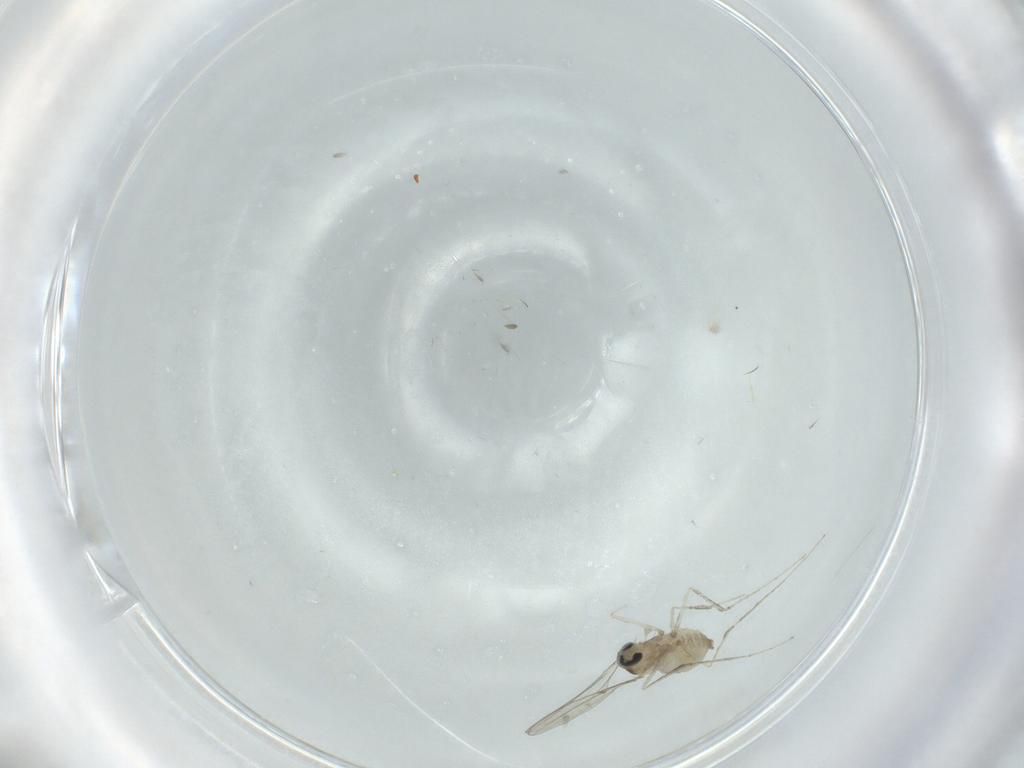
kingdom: Animalia
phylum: Arthropoda
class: Insecta
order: Diptera
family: Cecidomyiidae
